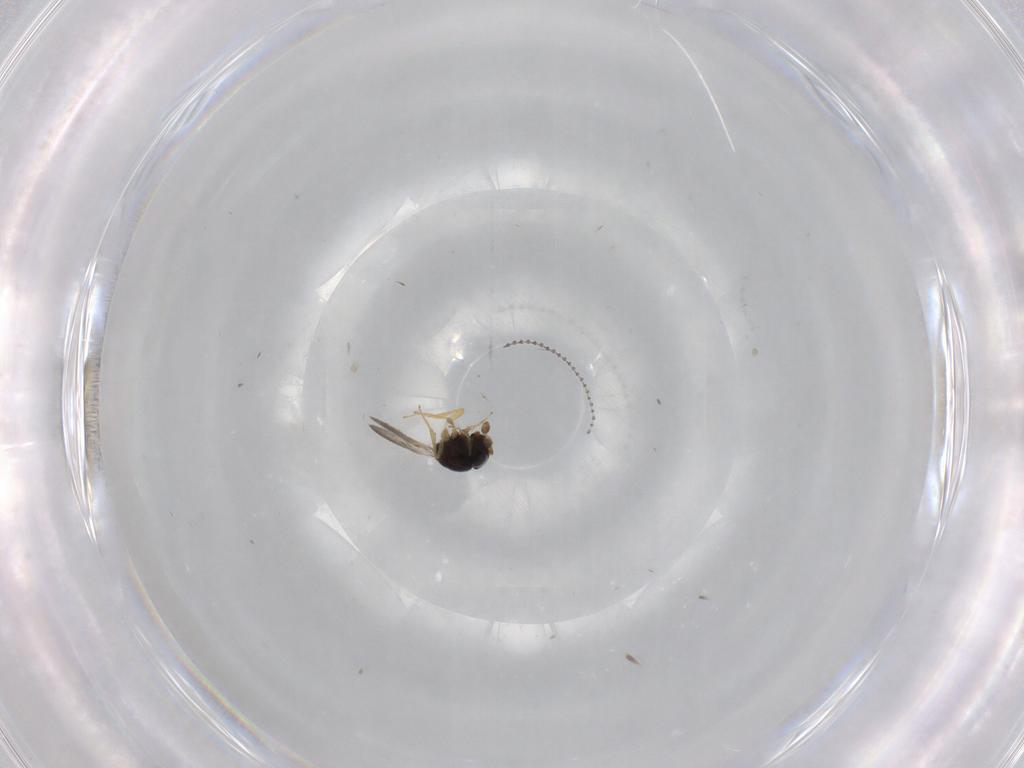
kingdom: Animalia
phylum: Arthropoda
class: Insecta
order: Hymenoptera
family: Scelionidae
